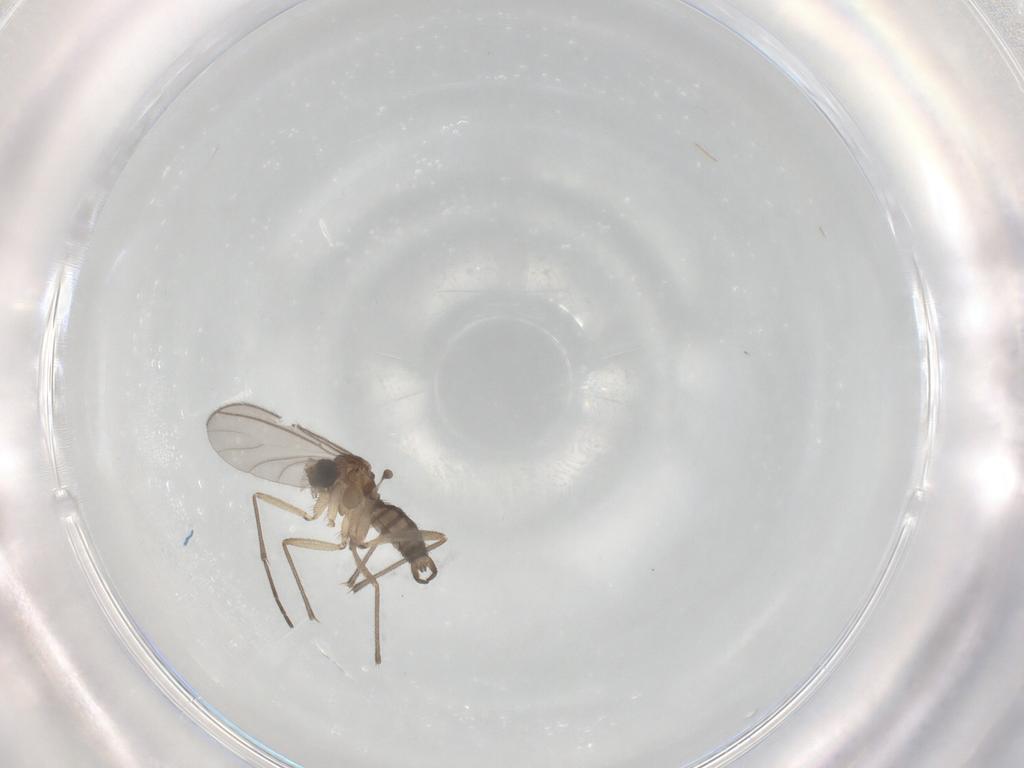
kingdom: Animalia
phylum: Arthropoda
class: Insecta
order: Diptera
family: Sciaridae
